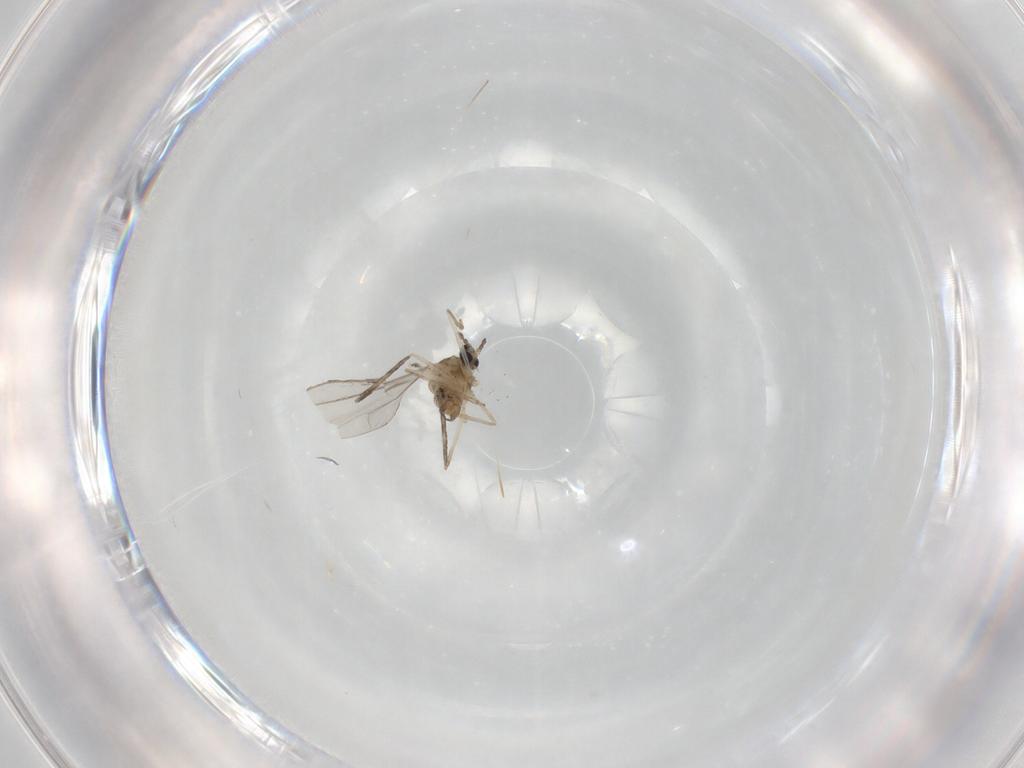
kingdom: Animalia
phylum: Arthropoda
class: Insecta
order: Diptera
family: Cecidomyiidae
